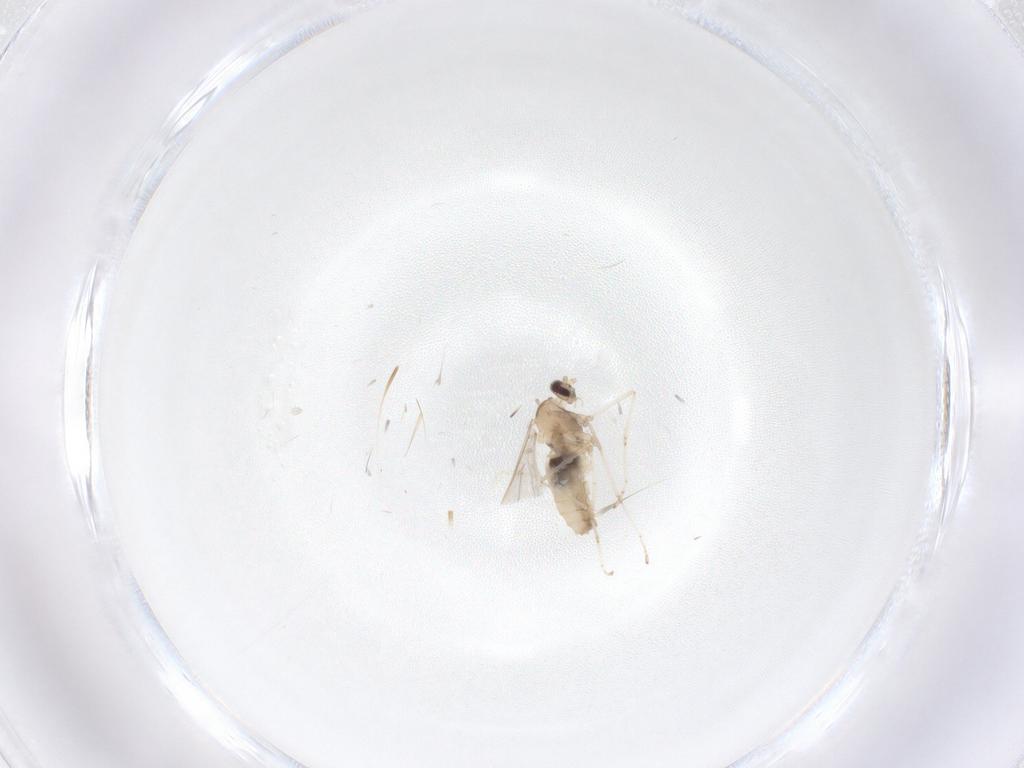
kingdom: Animalia
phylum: Arthropoda
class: Insecta
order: Diptera
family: Cecidomyiidae
